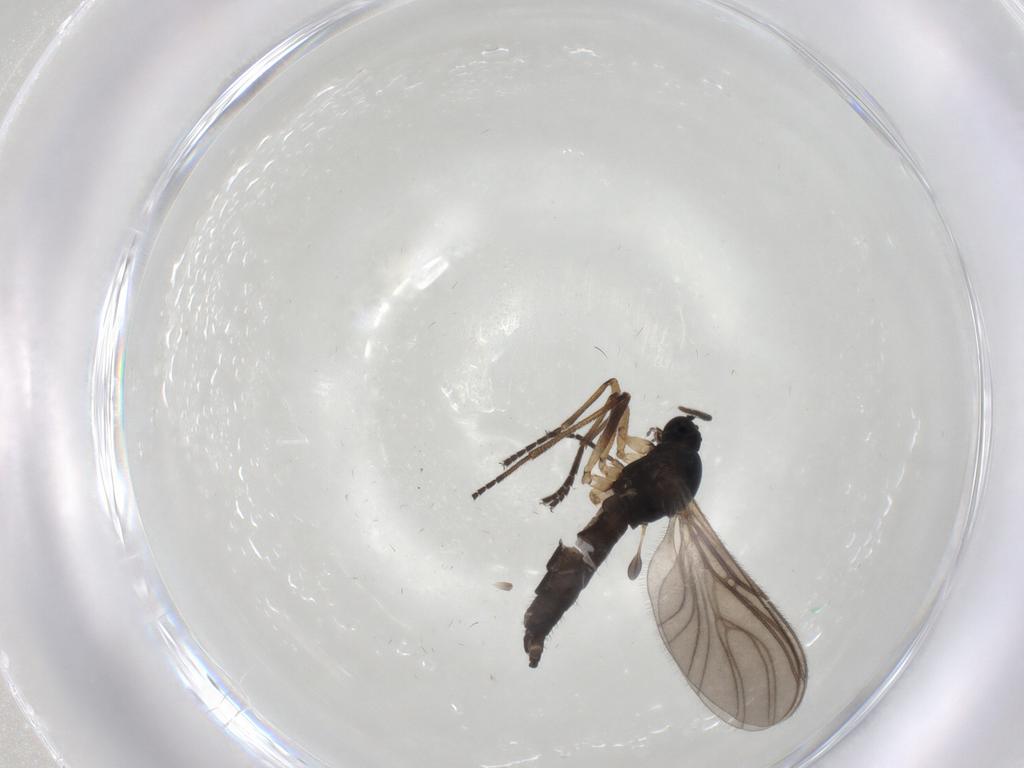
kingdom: Animalia
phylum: Arthropoda
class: Insecta
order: Diptera
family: Sciaridae
